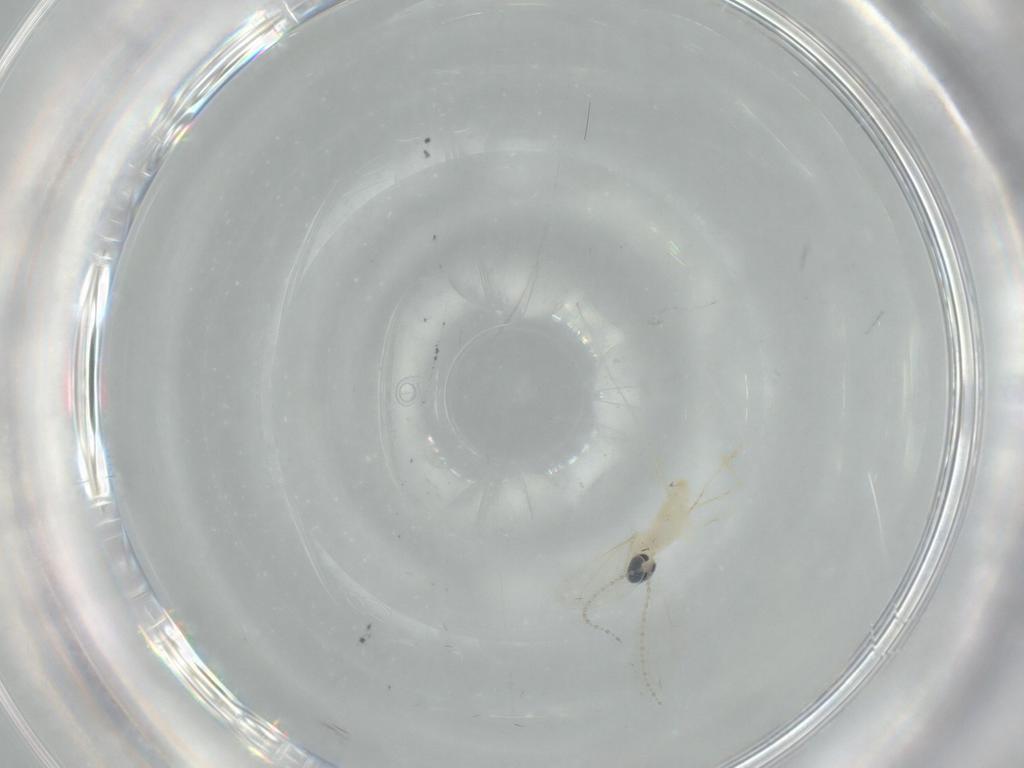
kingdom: Animalia
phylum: Arthropoda
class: Insecta
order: Diptera
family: Cecidomyiidae
